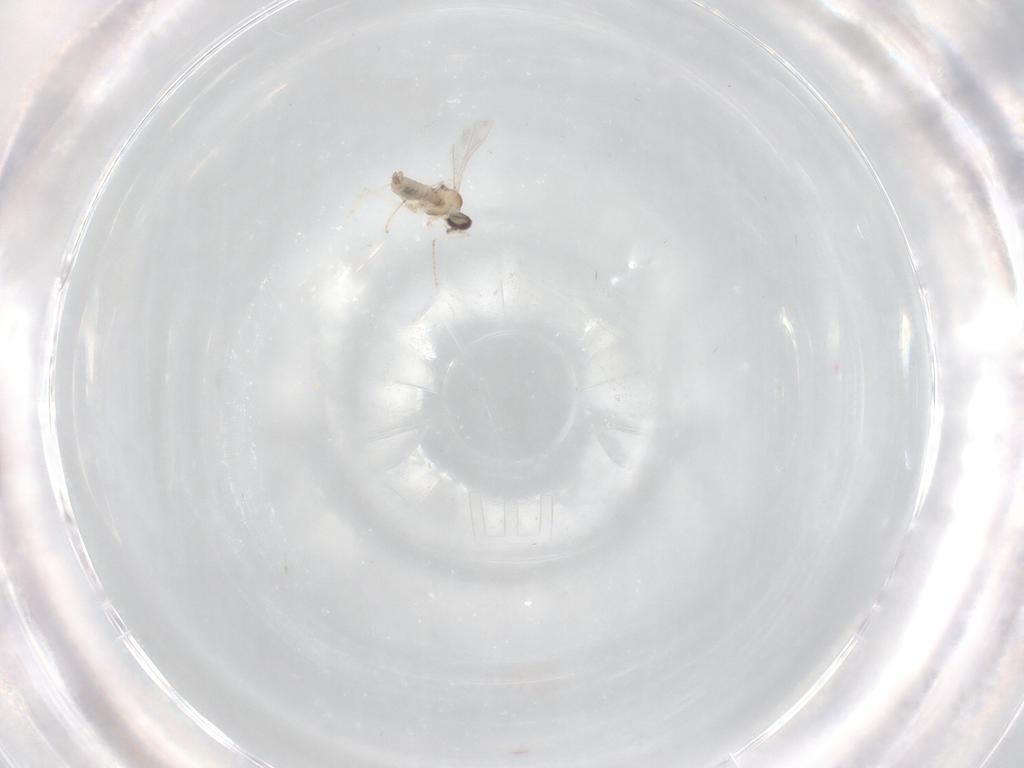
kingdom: Animalia
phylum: Arthropoda
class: Insecta
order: Diptera
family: Cecidomyiidae
